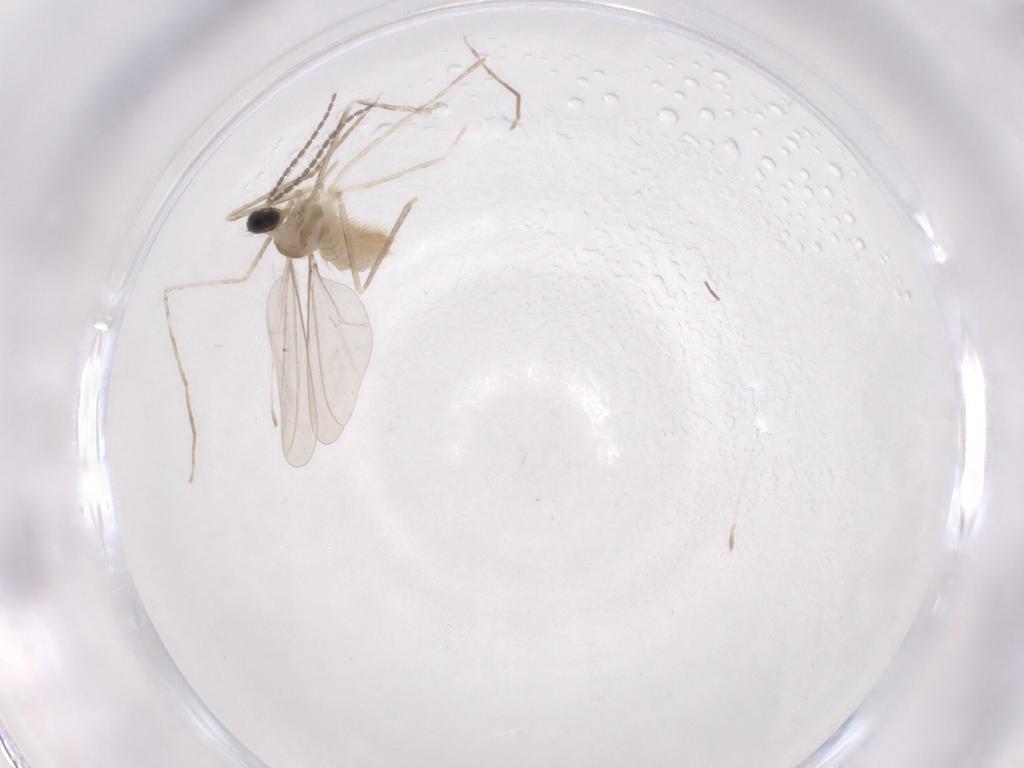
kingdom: Animalia
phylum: Arthropoda
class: Insecta
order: Diptera
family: Cecidomyiidae
